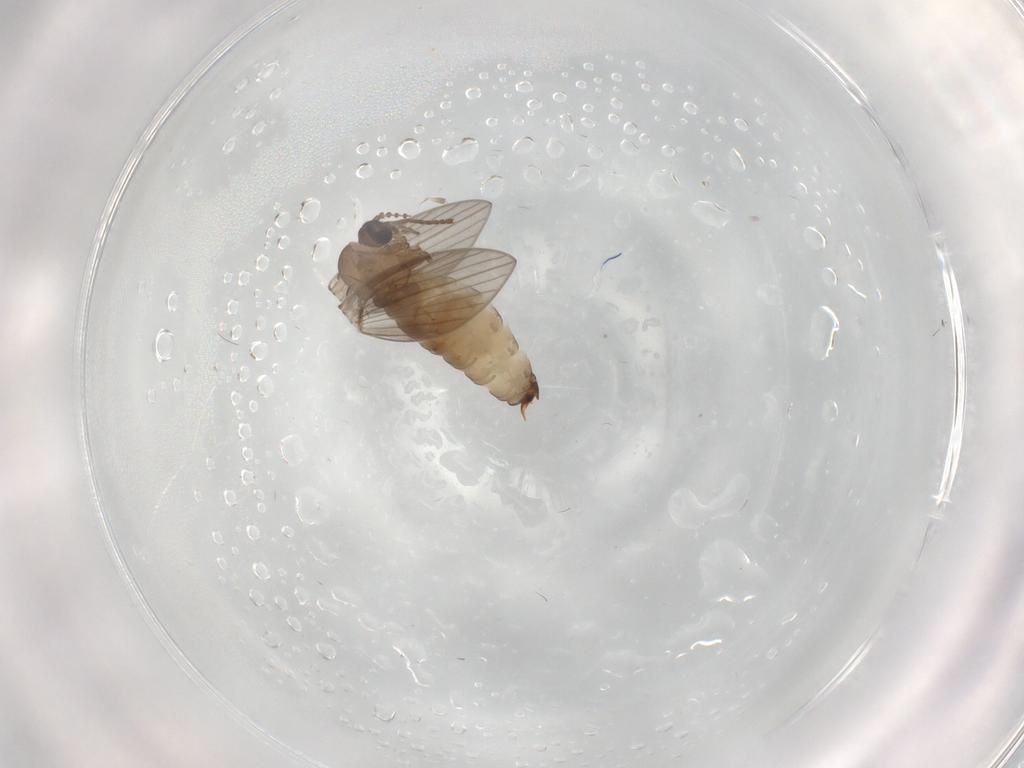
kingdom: Animalia
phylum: Arthropoda
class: Insecta
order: Diptera
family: Psychodidae
